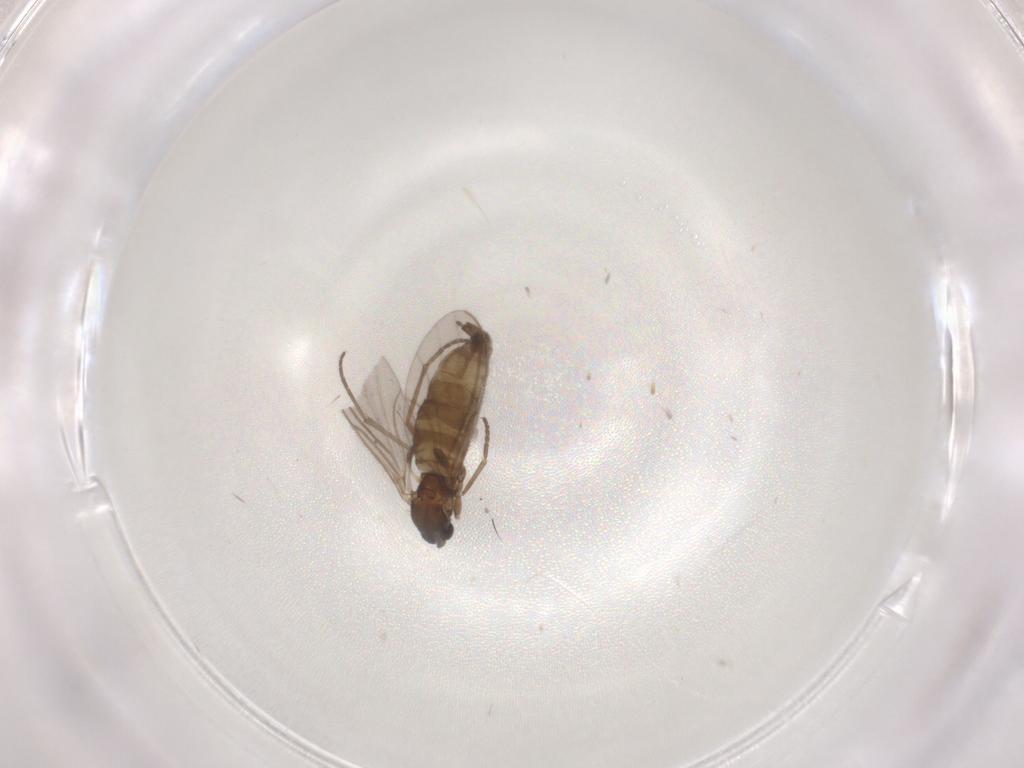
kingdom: Animalia
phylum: Arthropoda
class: Insecta
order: Diptera
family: Sciaridae
